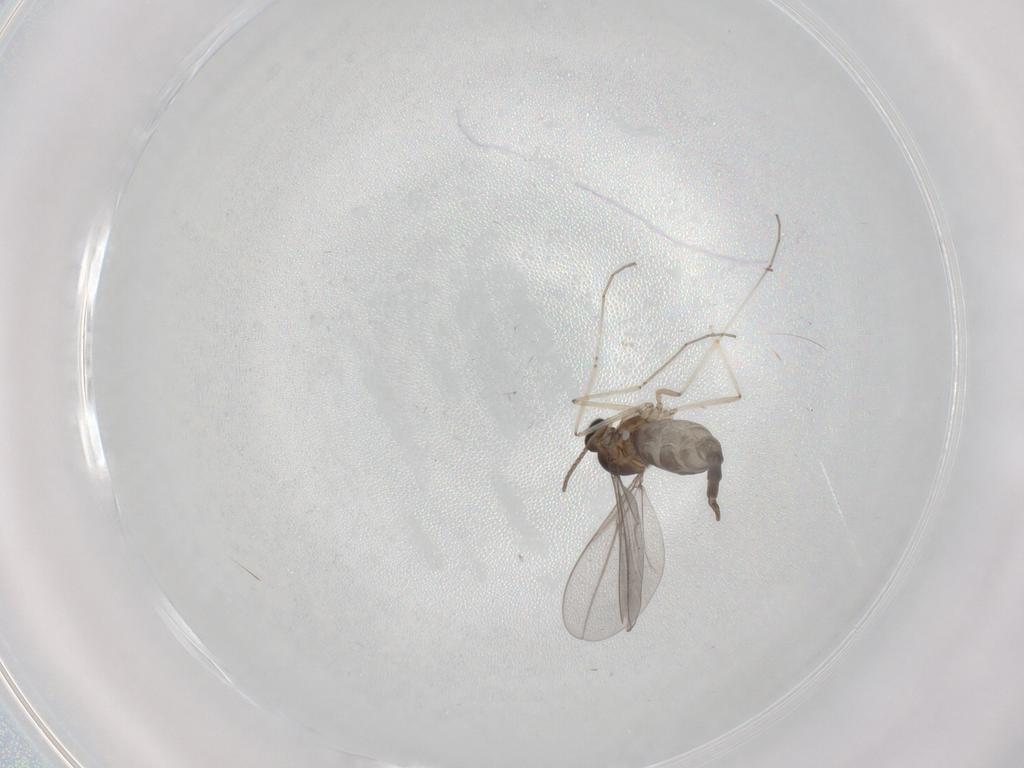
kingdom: Animalia
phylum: Arthropoda
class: Insecta
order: Diptera
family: Cecidomyiidae
